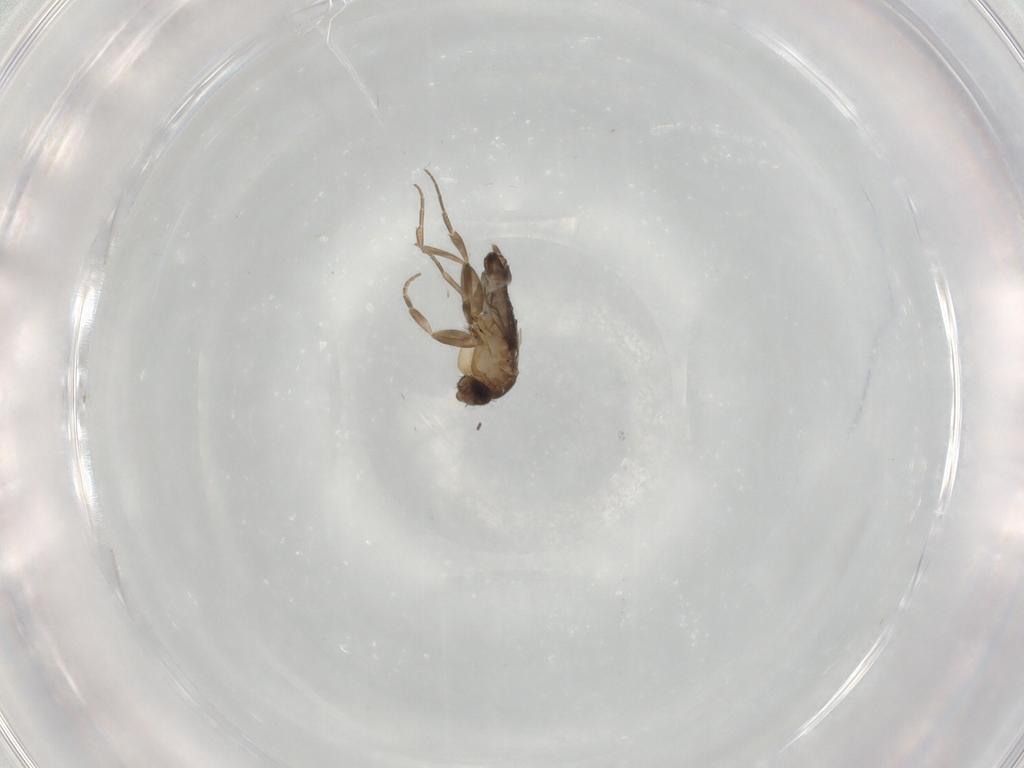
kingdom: Animalia
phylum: Arthropoda
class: Insecta
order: Diptera
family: Phoridae
